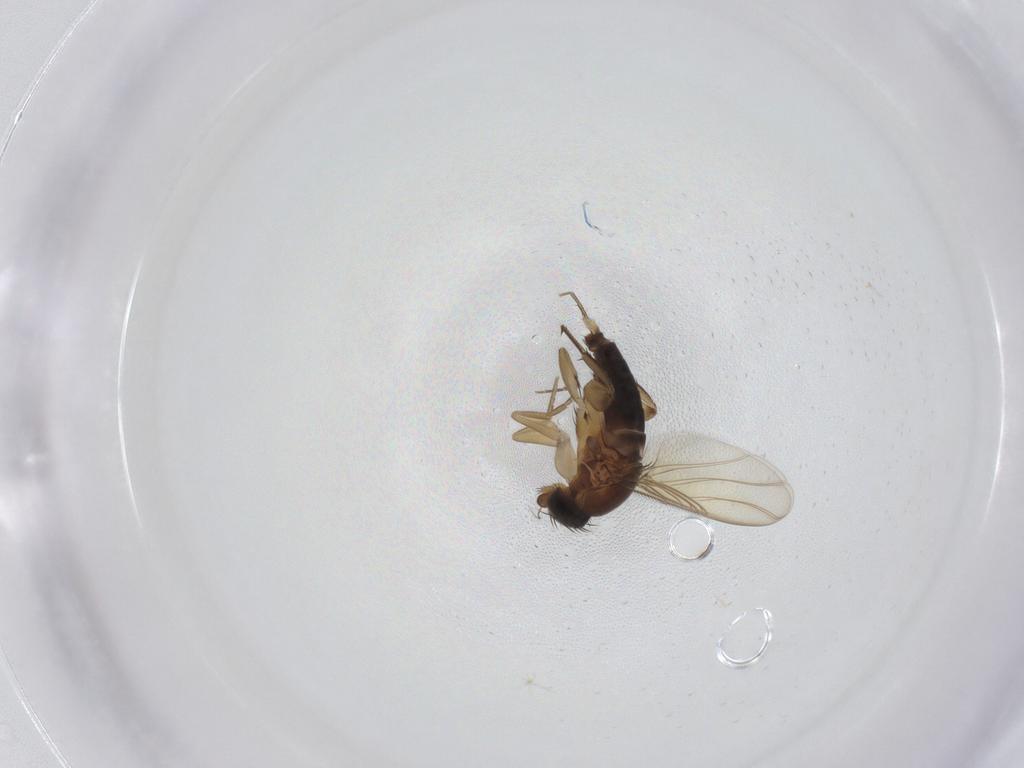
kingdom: Animalia
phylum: Arthropoda
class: Insecta
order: Diptera
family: Phoridae
